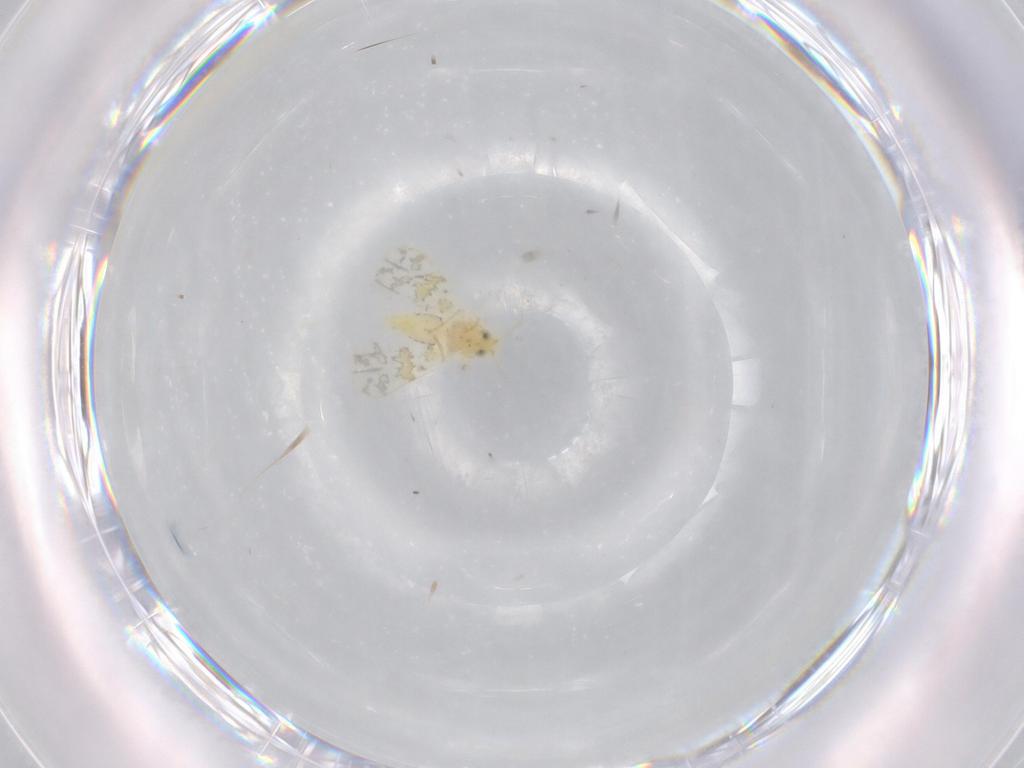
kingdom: Animalia
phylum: Arthropoda
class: Insecta
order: Hemiptera
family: Aleyrodidae
